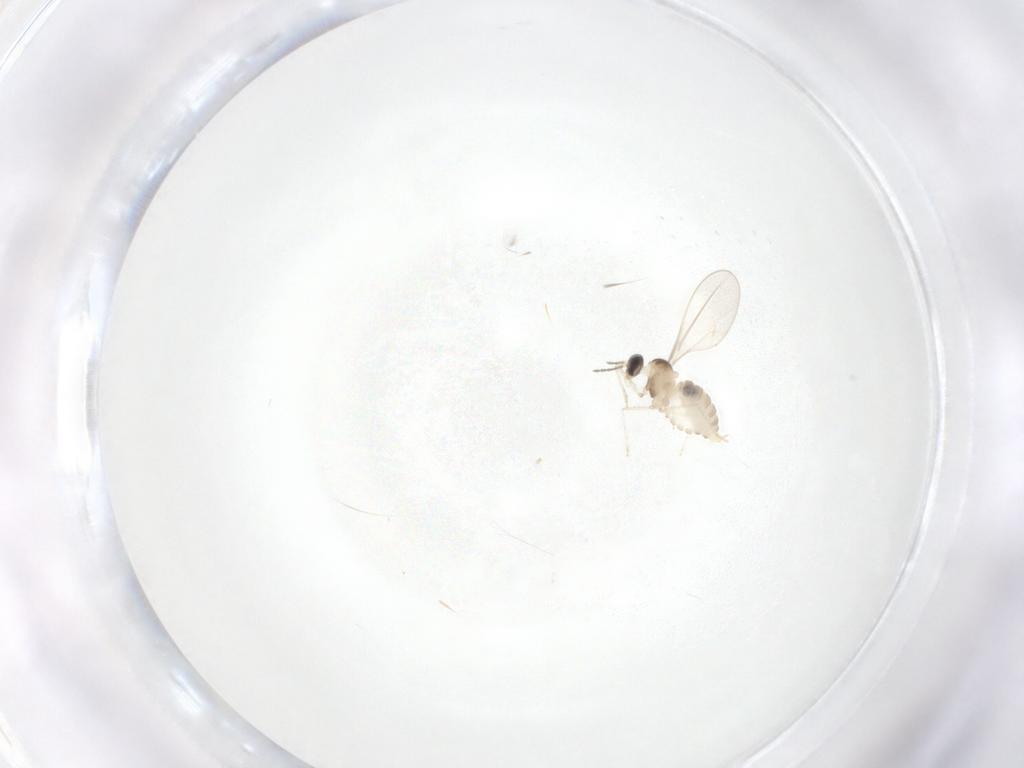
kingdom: Animalia
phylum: Arthropoda
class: Insecta
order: Diptera
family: Cecidomyiidae
